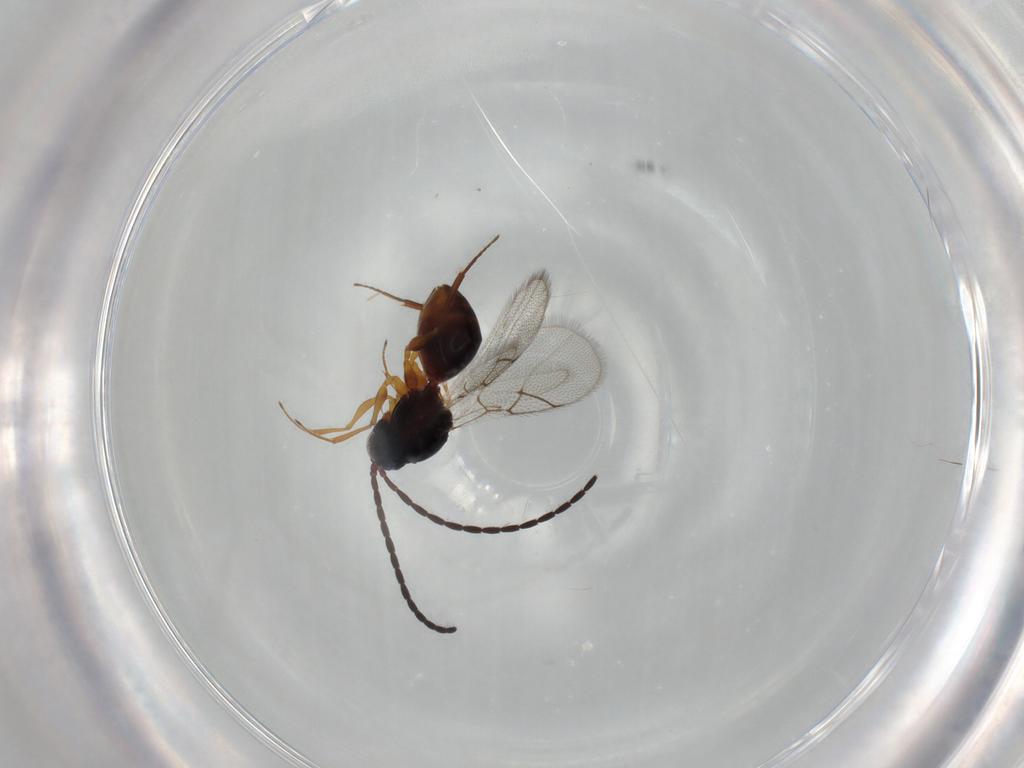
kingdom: Animalia
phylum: Arthropoda
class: Insecta
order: Hymenoptera
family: Figitidae
